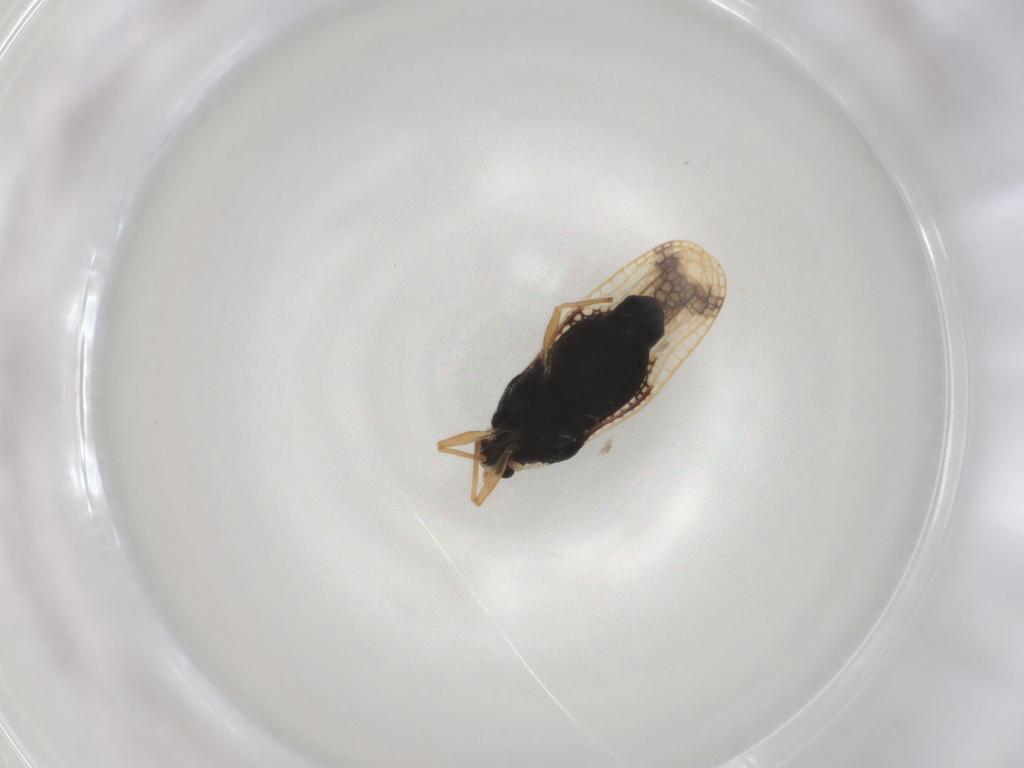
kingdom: Animalia
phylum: Arthropoda
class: Insecta
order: Hemiptera
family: Tingidae
